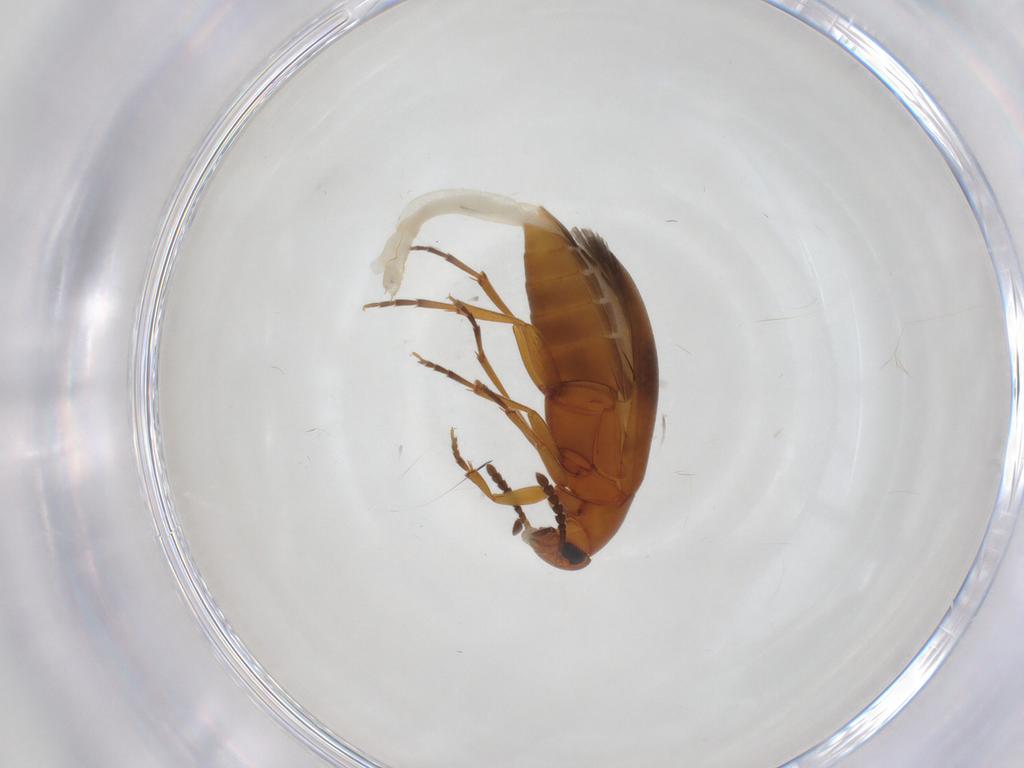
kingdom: Animalia
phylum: Arthropoda
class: Insecta
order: Coleoptera
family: Scraptiidae
